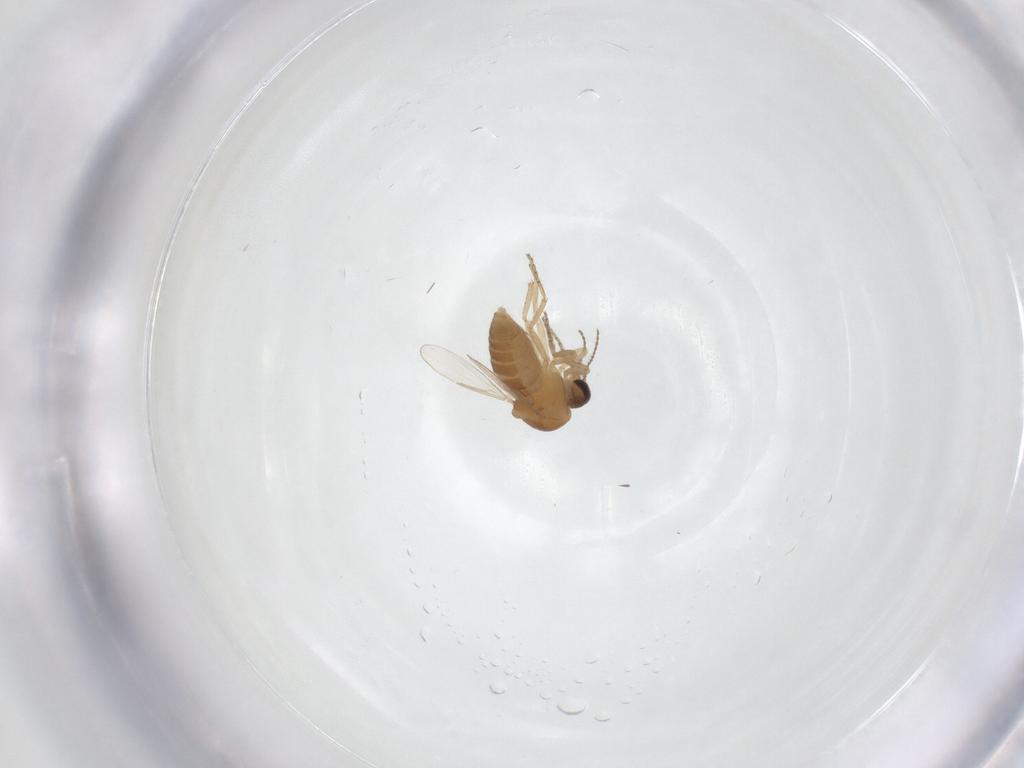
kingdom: Animalia
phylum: Arthropoda
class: Insecta
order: Diptera
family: Ceratopogonidae
